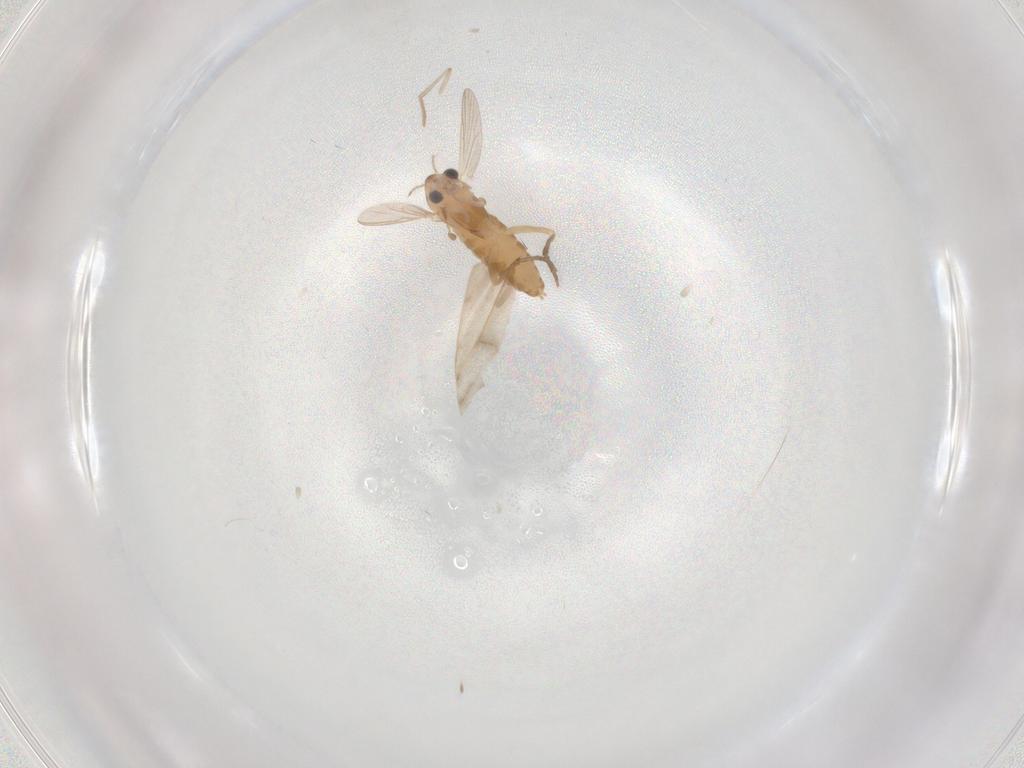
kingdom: Animalia
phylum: Arthropoda
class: Insecta
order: Diptera
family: Chironomidae
